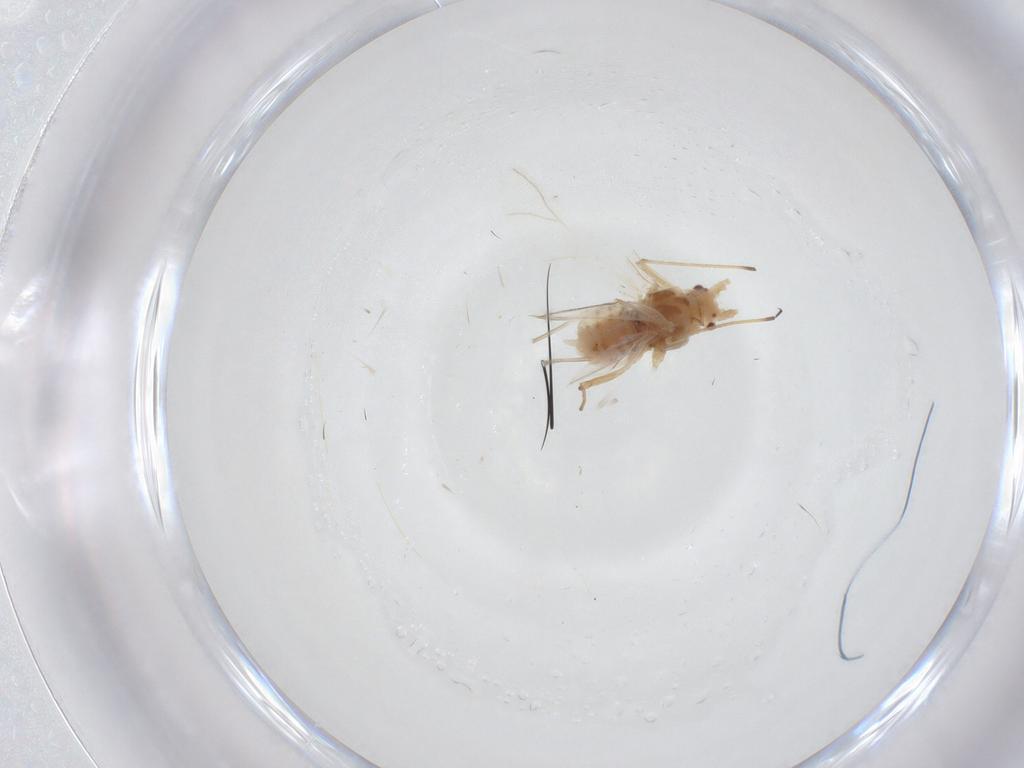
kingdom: Animalia
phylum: Arthropoda
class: Insecta
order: Hemiptera
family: Aphididae
